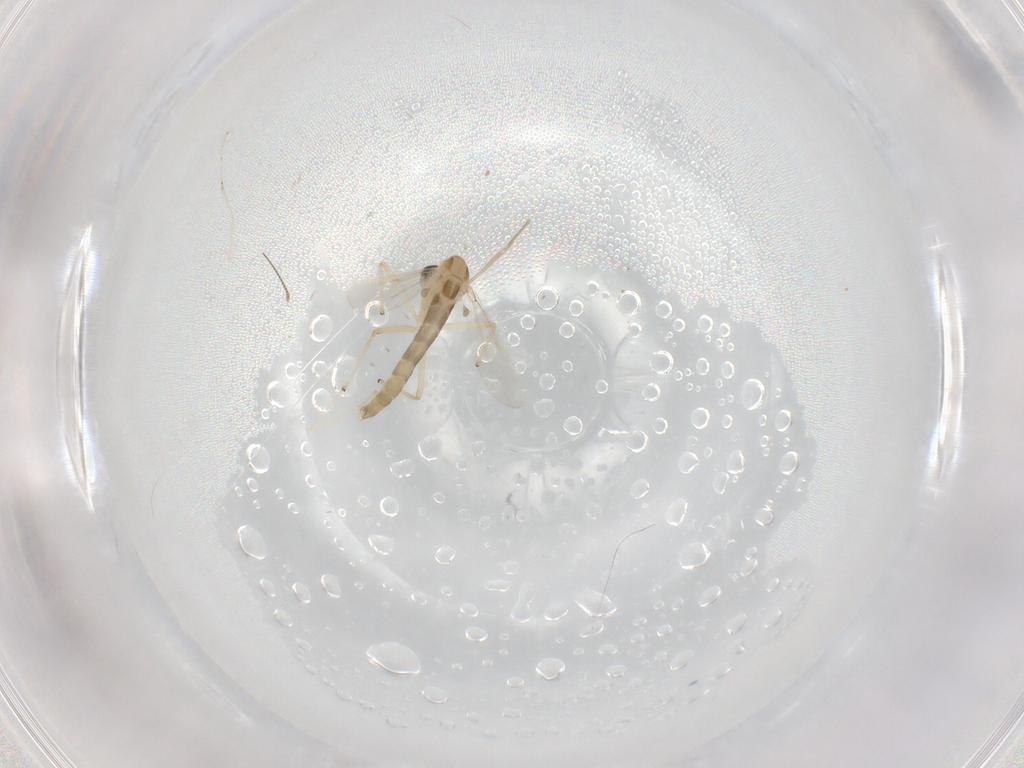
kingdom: Animalia
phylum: Arthropoda
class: Insecta
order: Diptera
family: Chironomidae
